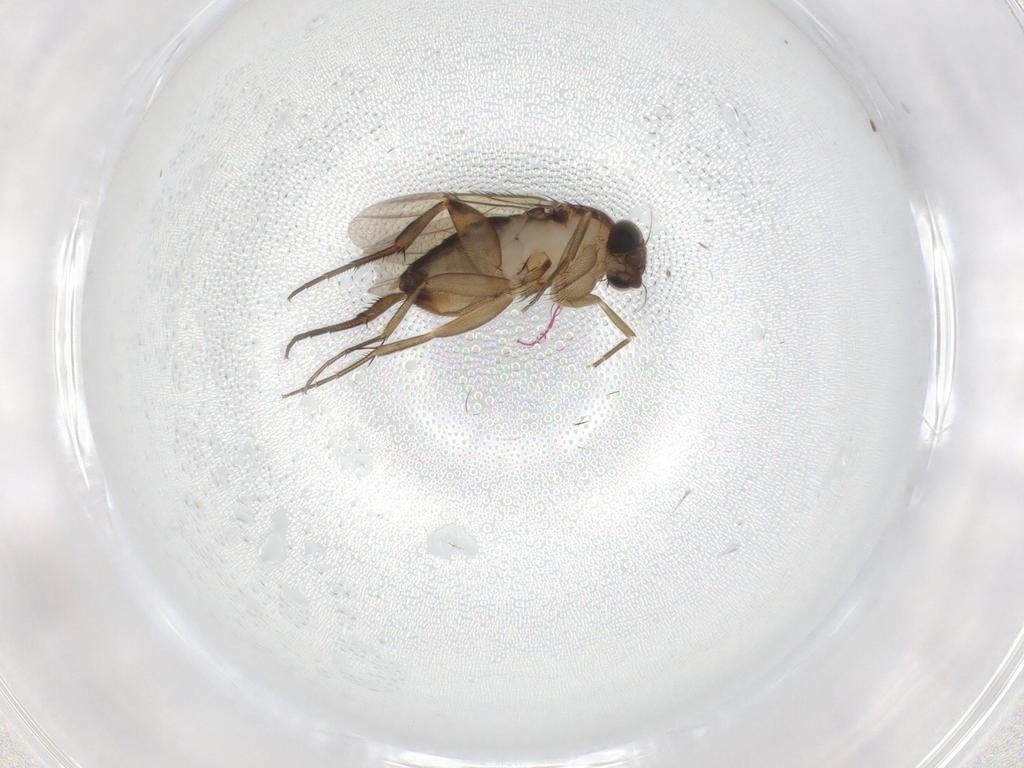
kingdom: Animalia
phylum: Arthropoda
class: Insecta
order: Diptera
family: Phoridae
